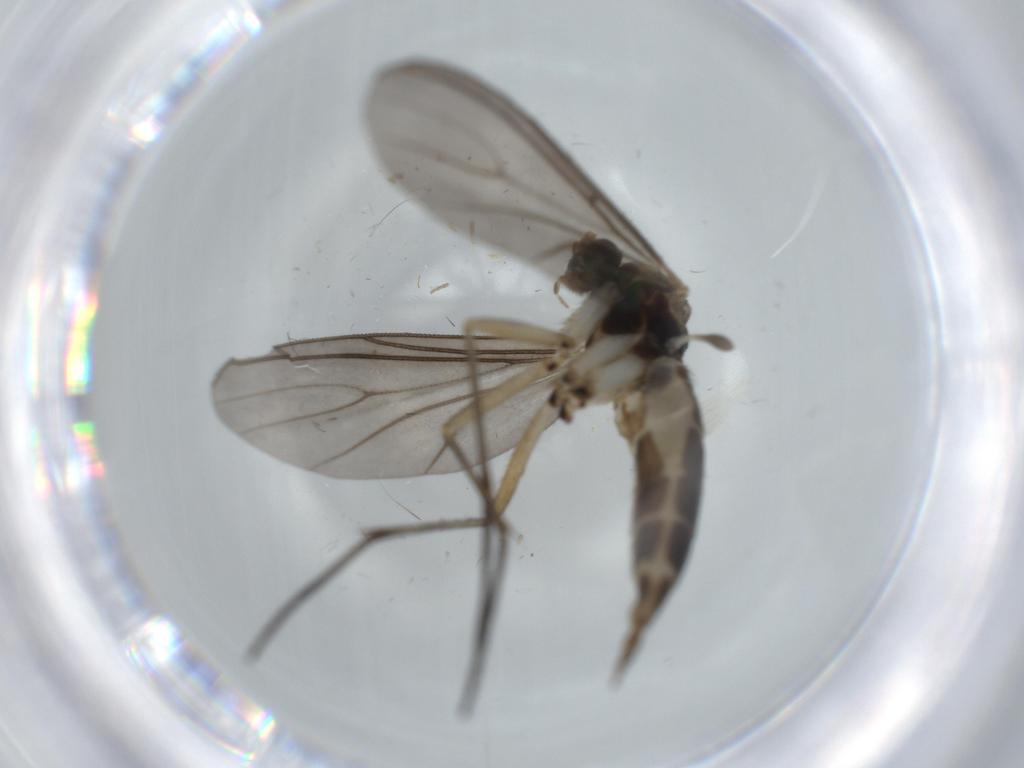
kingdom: Animalia
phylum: Arthropoda
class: Insecta
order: Diptera
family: Sciaridae
